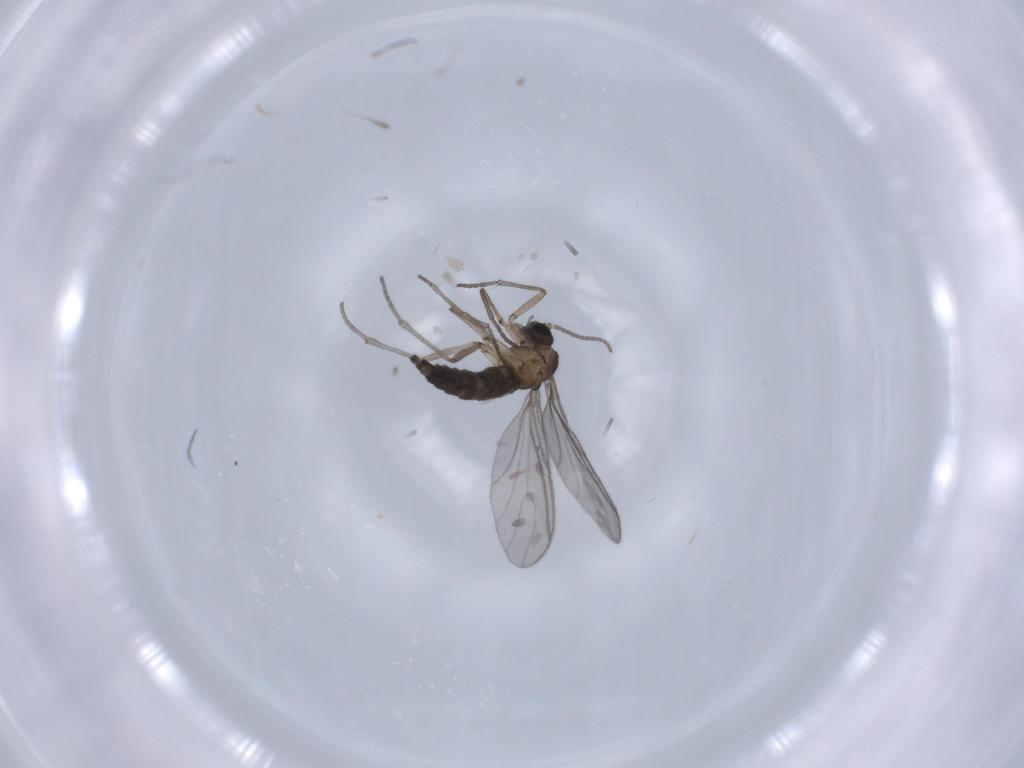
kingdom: Animalia
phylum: Arthropoda
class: Insecta
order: Diptera
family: Sciaridae
